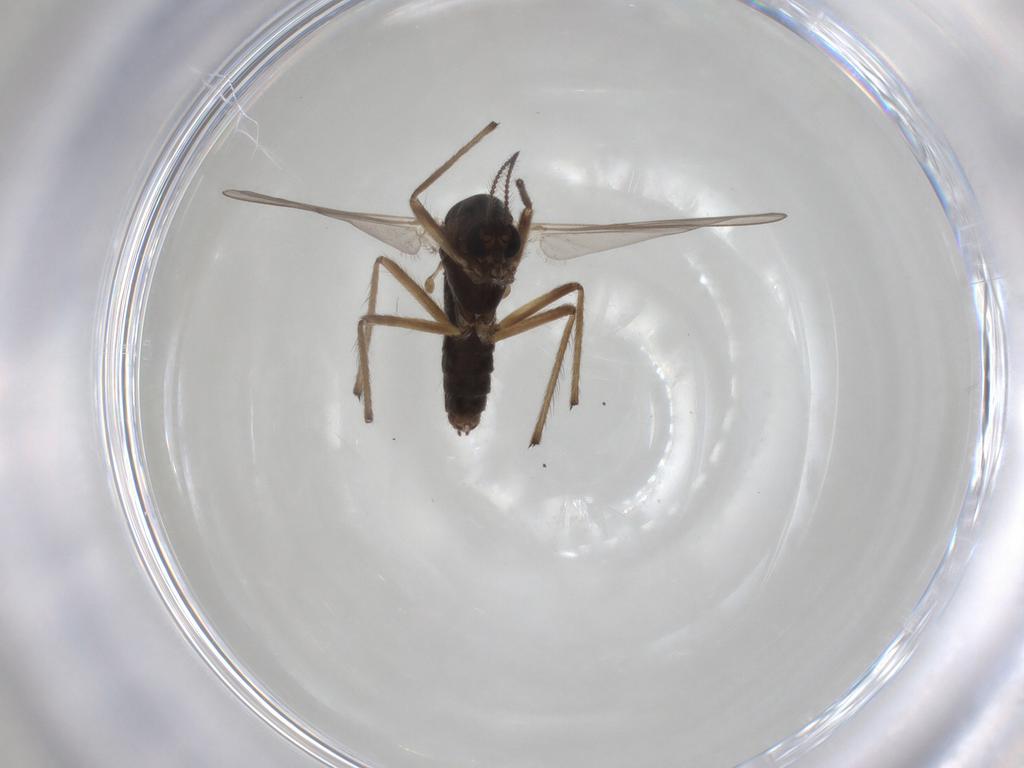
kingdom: Animalia
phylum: Arthropoda
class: Insecta
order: Diptera
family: Chironomidae
